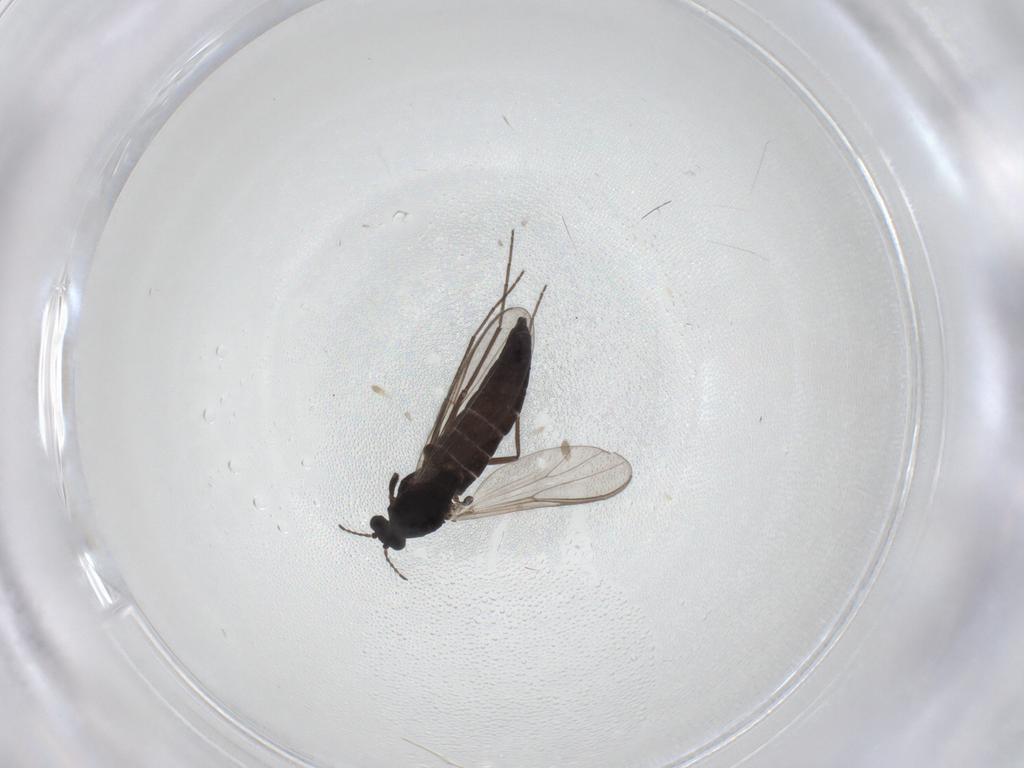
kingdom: Animalia
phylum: Arthropoda
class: Insecta
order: Diptera
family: Chironomidae
